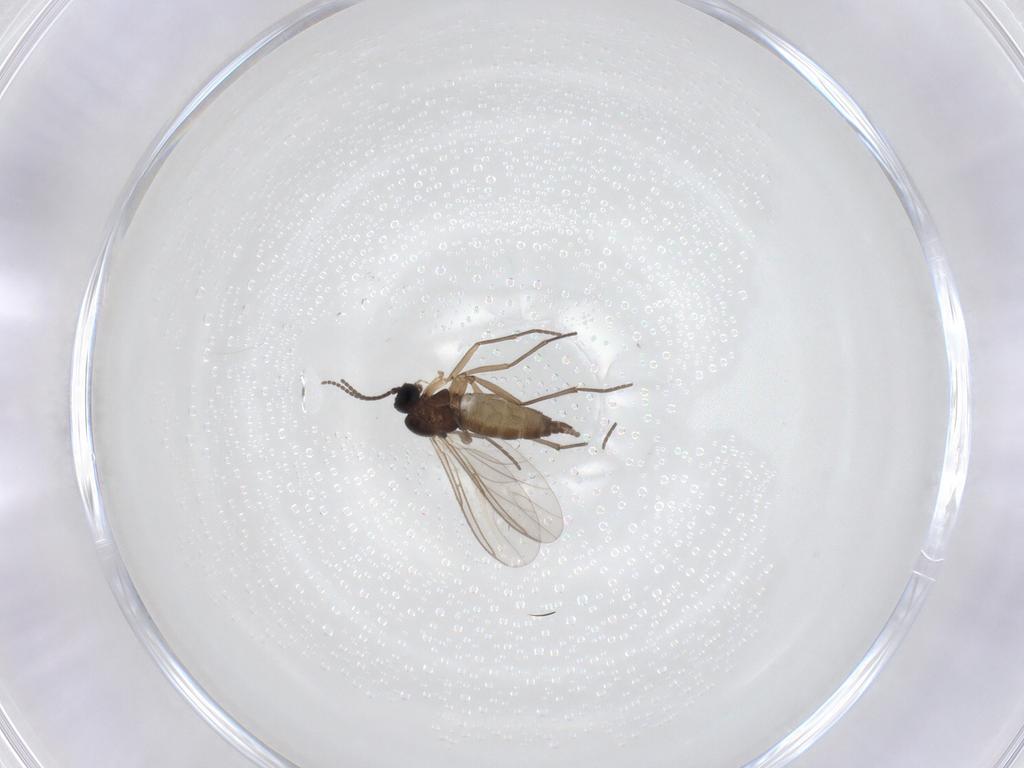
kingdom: Animalia
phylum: Arthropoda
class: Insecta
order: Diptera
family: Sciaridae
